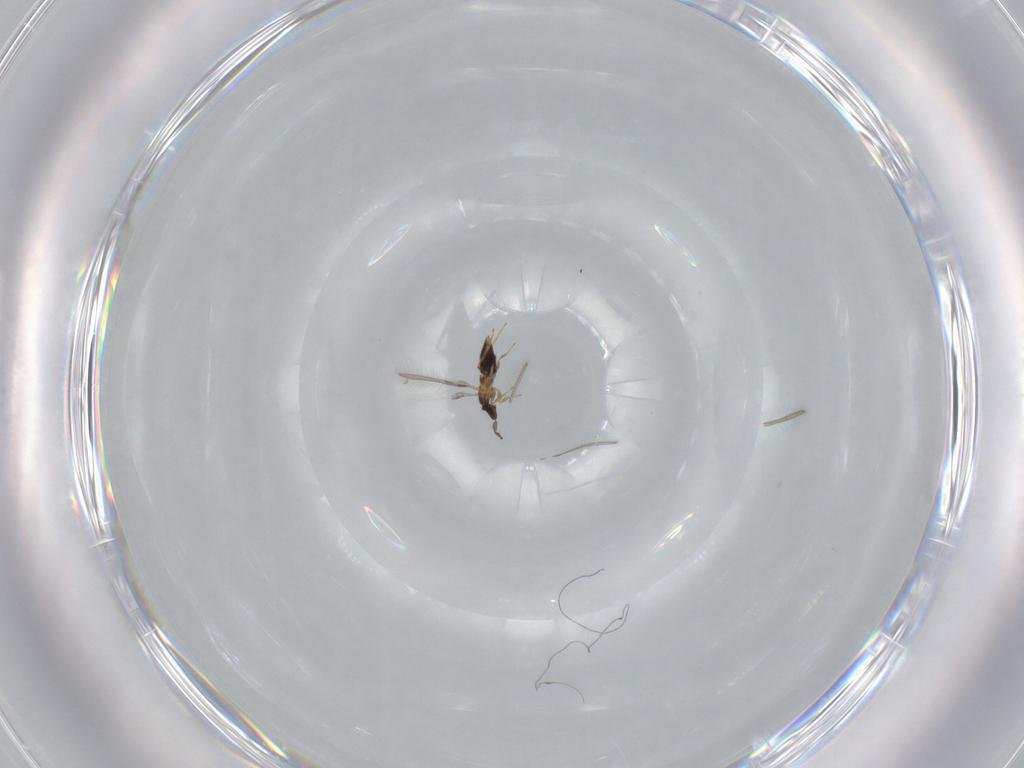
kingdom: Animalia
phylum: Arthropoda
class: Insecta
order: Hymenoptera
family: Mymaridae
